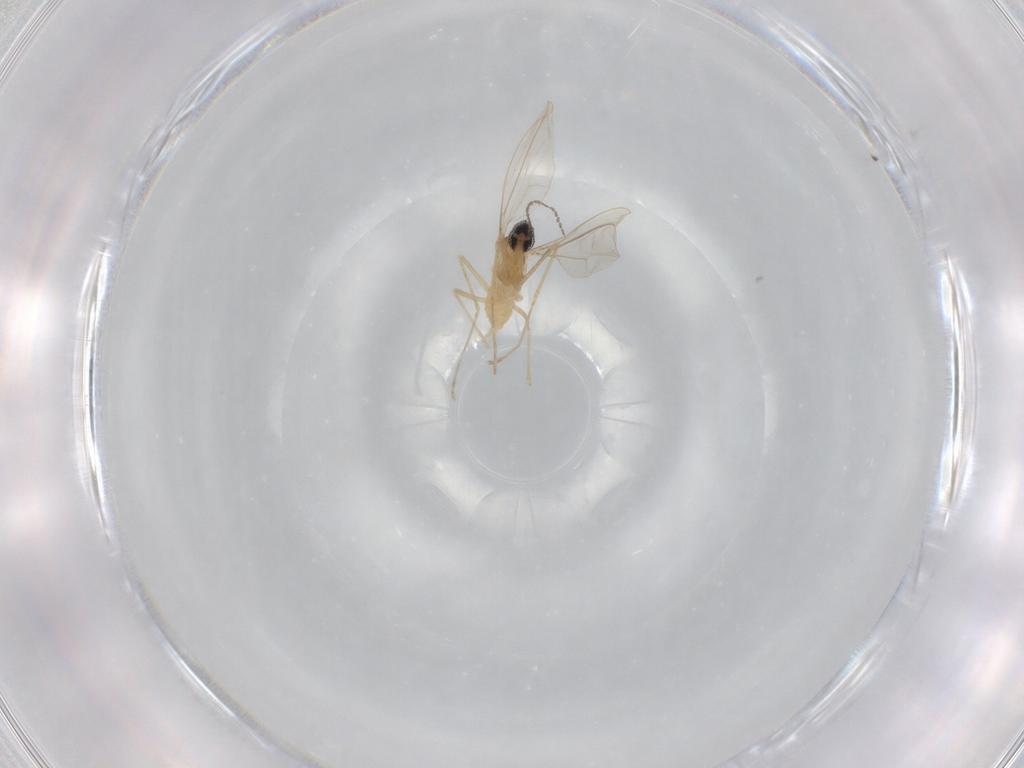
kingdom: Animalia
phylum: Arthropoda
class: Insecta
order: Diptera
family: Cecidomyiidae
